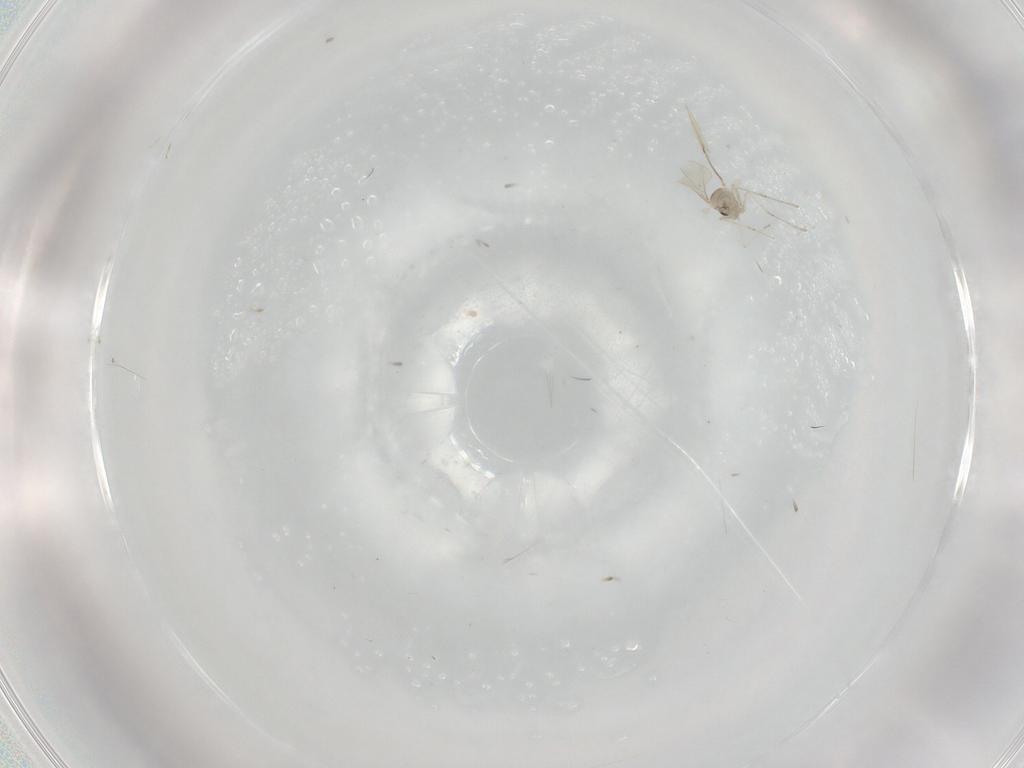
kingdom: Animalia
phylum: Arthropoda
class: Insecta
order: Diptera
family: Cecidomyiidae
